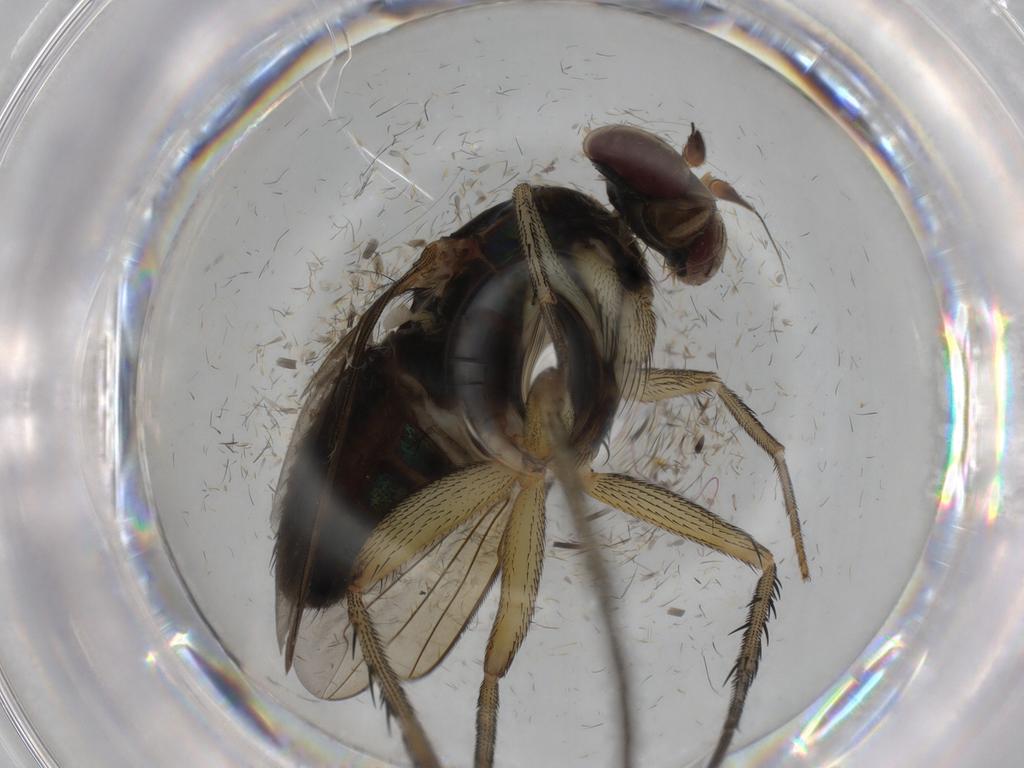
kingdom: Animalia
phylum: Arthropoda
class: Insecta
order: Diptera
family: Dolichopodidae
